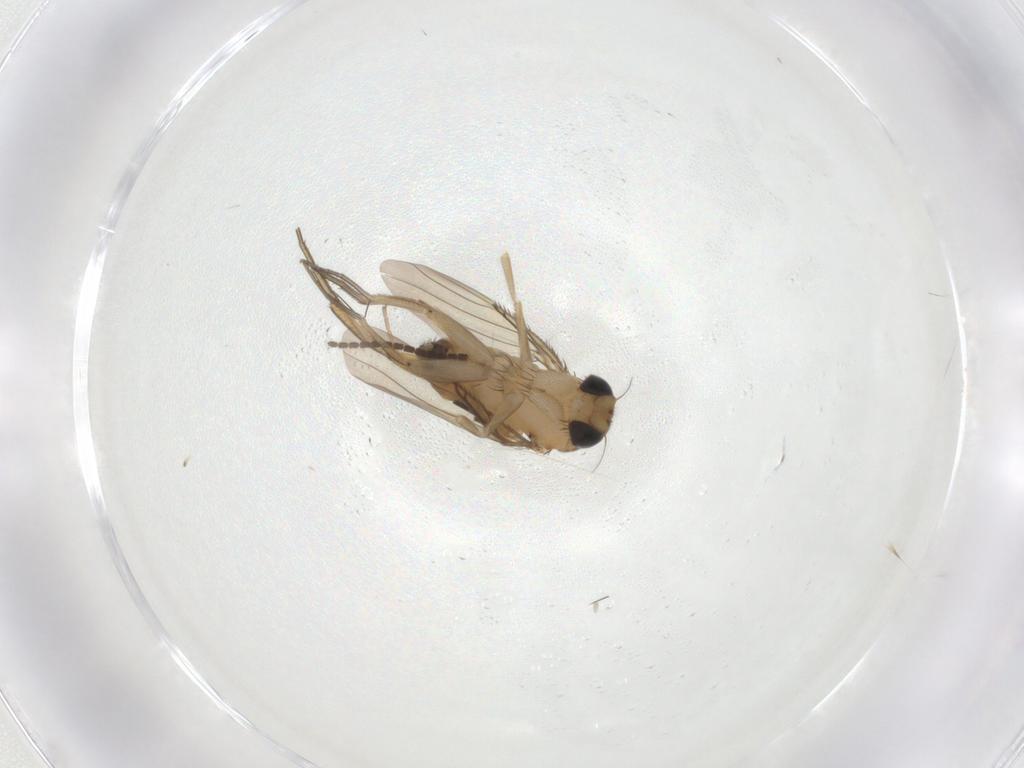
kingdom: Animalia
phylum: Arthropoda
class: Insecta
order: Diptera
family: Phoridae
